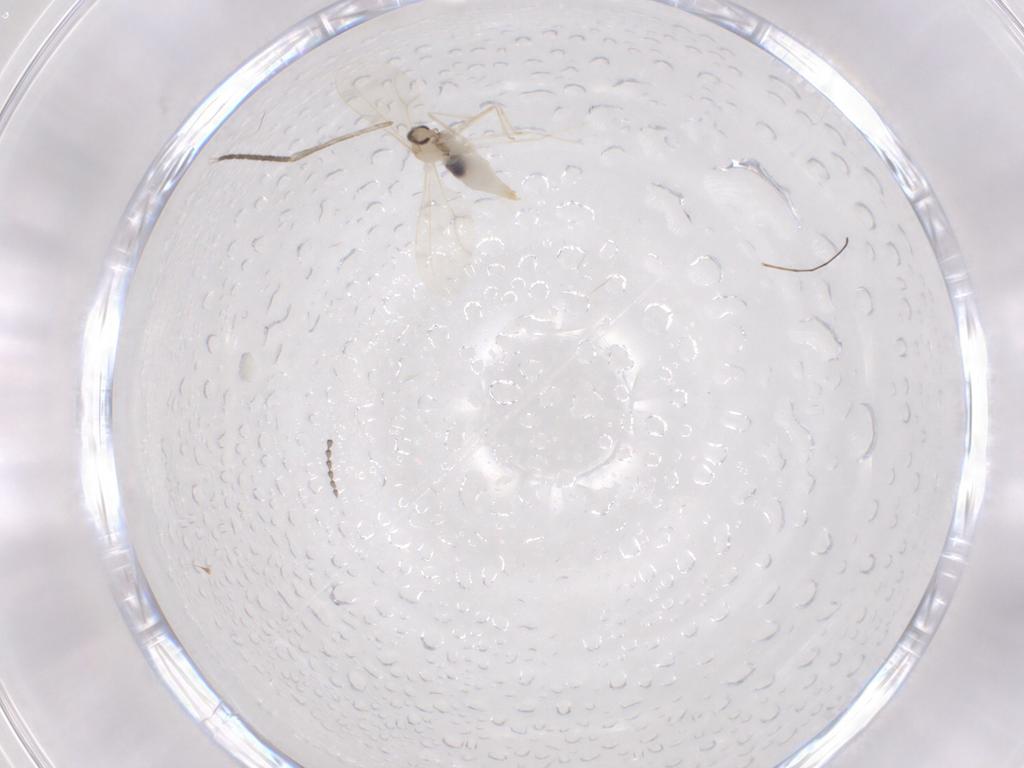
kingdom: Animalia
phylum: Arthropoda
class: Insecta
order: Diptera
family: Cecidomyiidae
